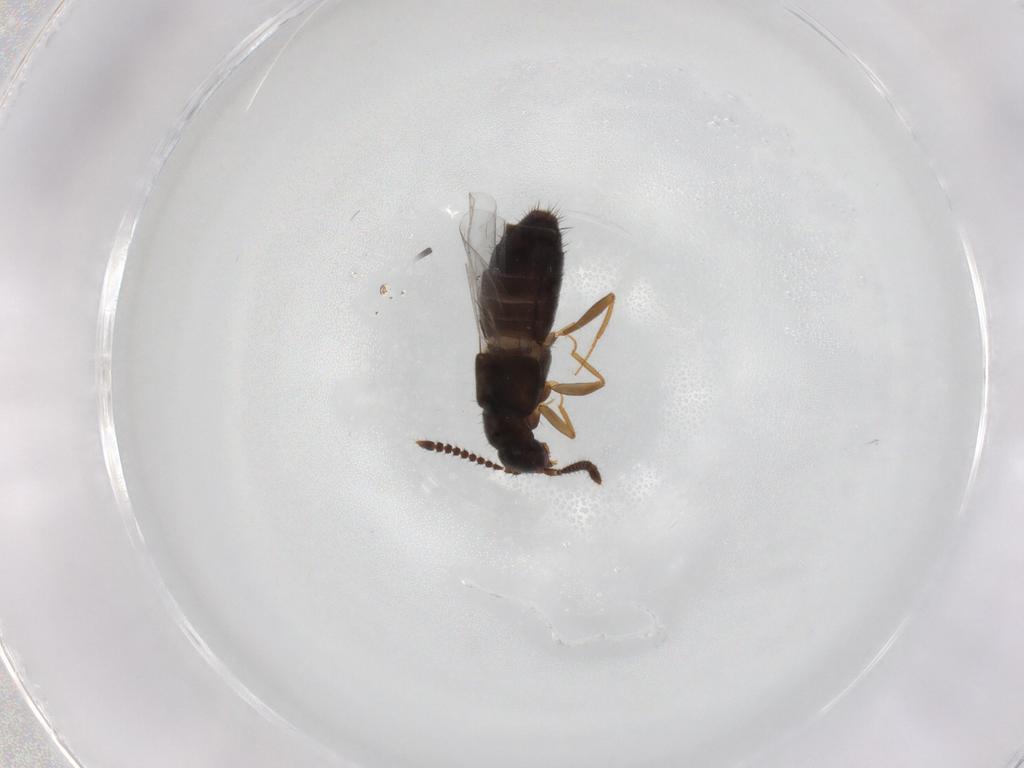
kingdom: Animalia
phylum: Arthropoda
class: Insecta
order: Coleoptera
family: Staphylinidae
